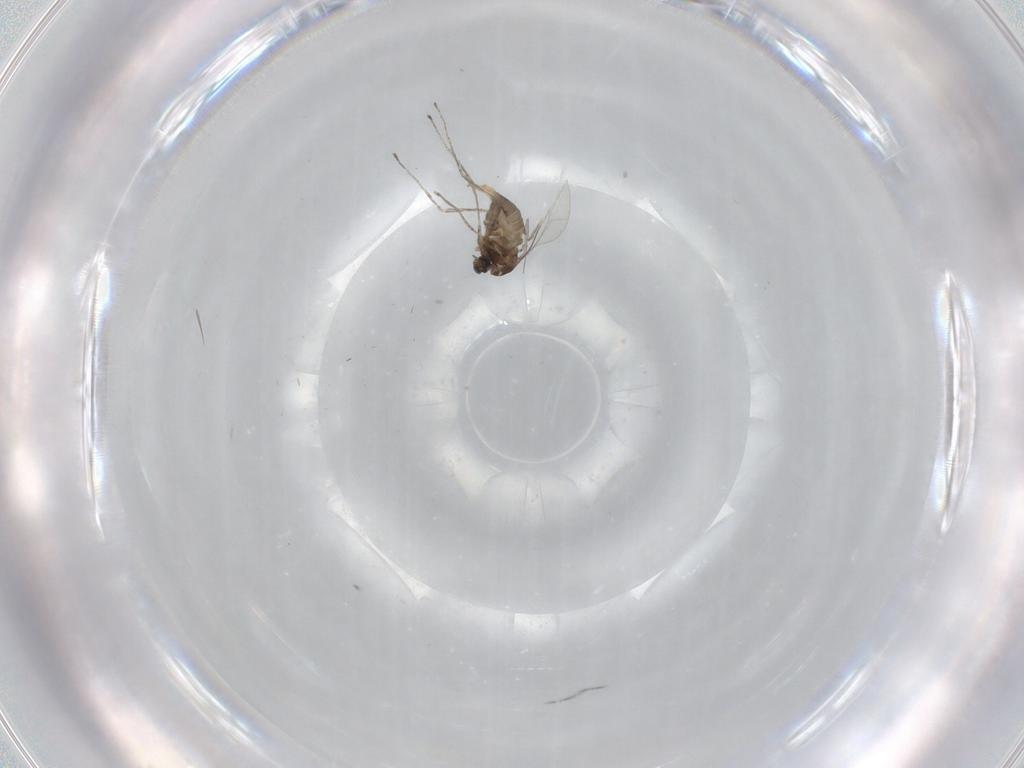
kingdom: Animalia
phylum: Arthropoda
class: Insecta
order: Diptera
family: Cecidomyiidae
